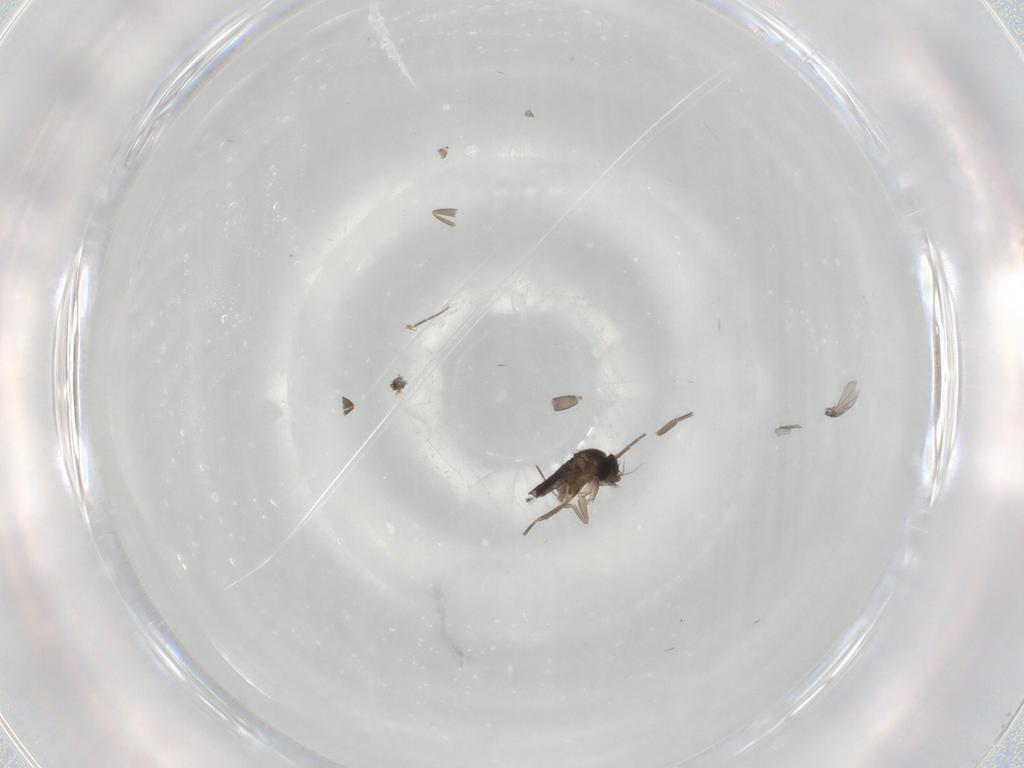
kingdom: Animalia
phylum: Arthropoda
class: Insecta
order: Diptera
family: Phoridae
